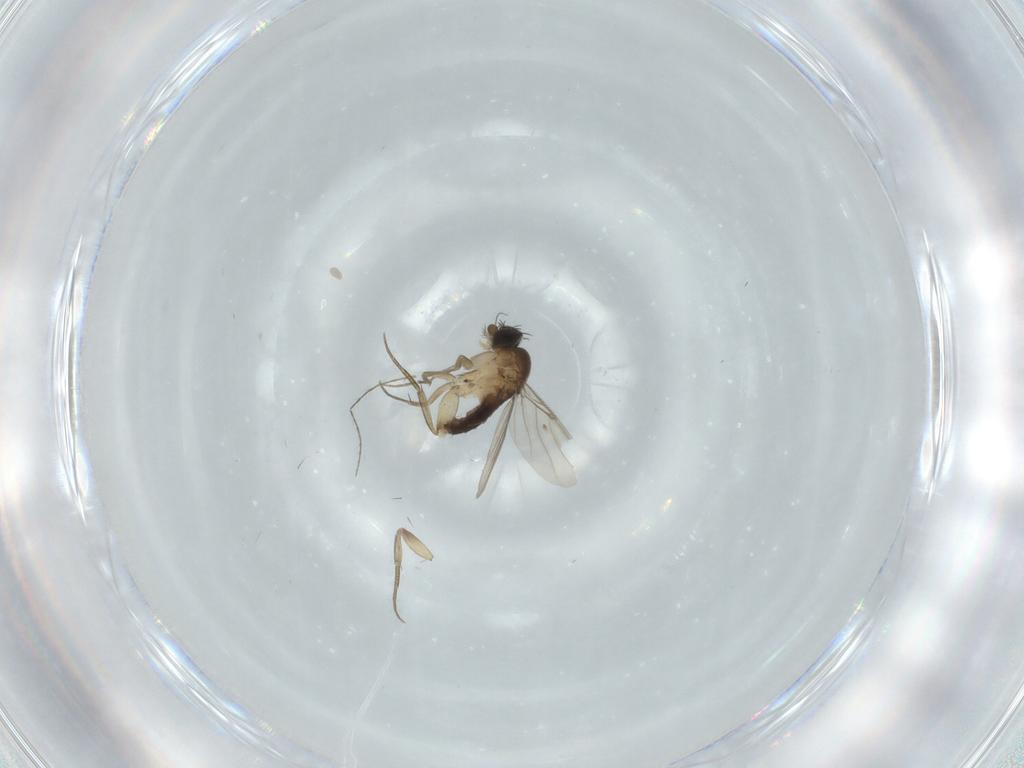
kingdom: Animalia
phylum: Arthropoda
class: Insecta
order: Diptera
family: Phoridae
